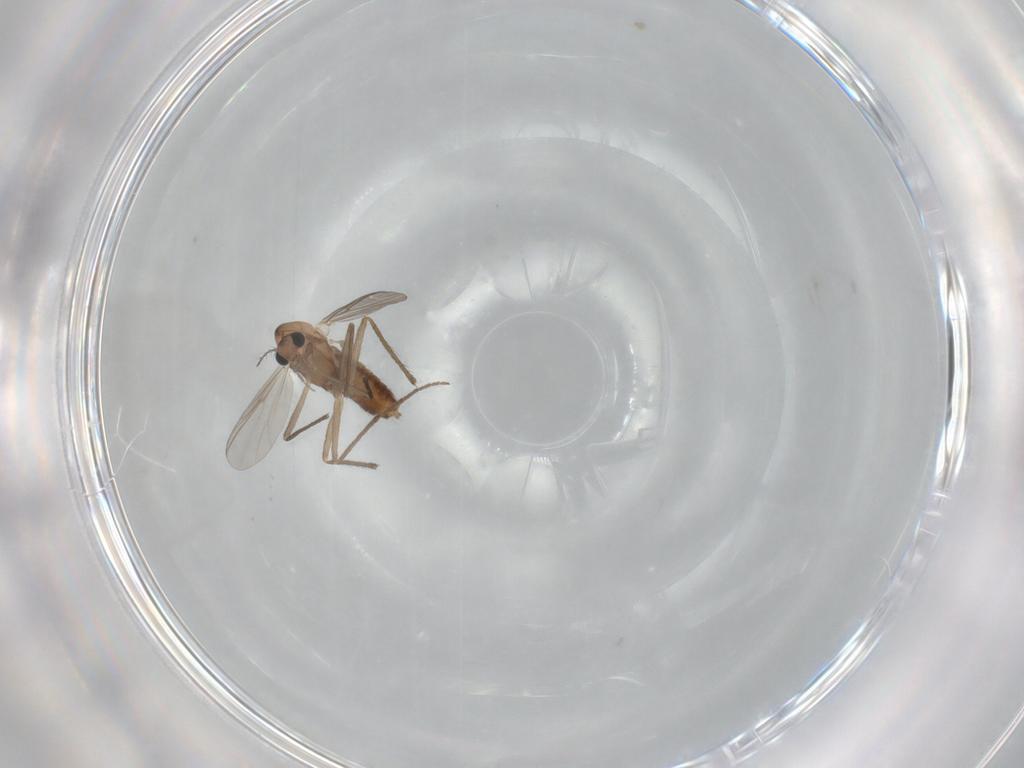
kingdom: Animalia
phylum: Arthropoda
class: Insecta
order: Diptera
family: Chironomidae
